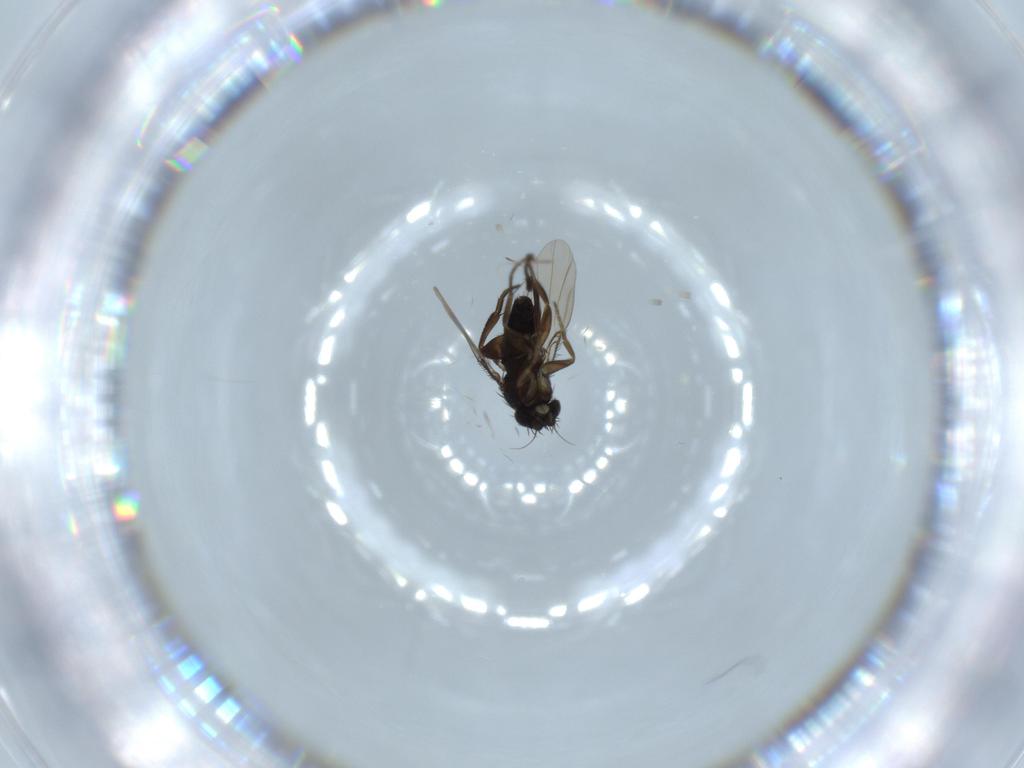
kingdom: Animalia
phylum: Arthropoda
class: Insecta
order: Diptera
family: Phoridae
